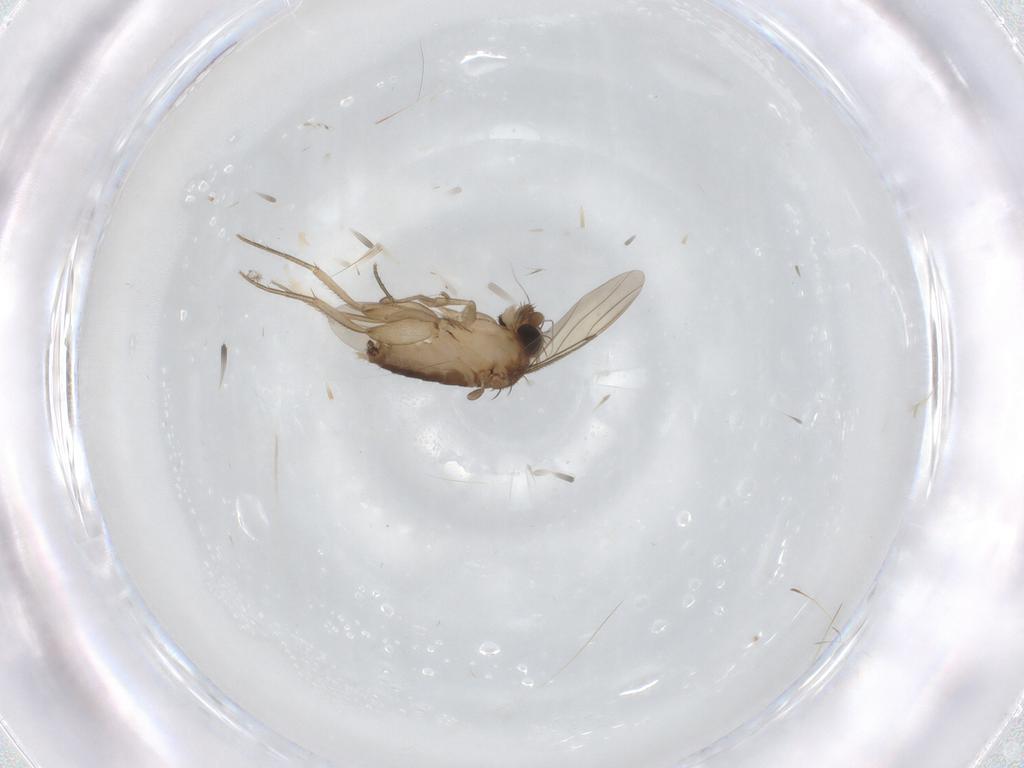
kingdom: Animalia
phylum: Arthropoda
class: Insecta
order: Diptera
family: Phoridae
